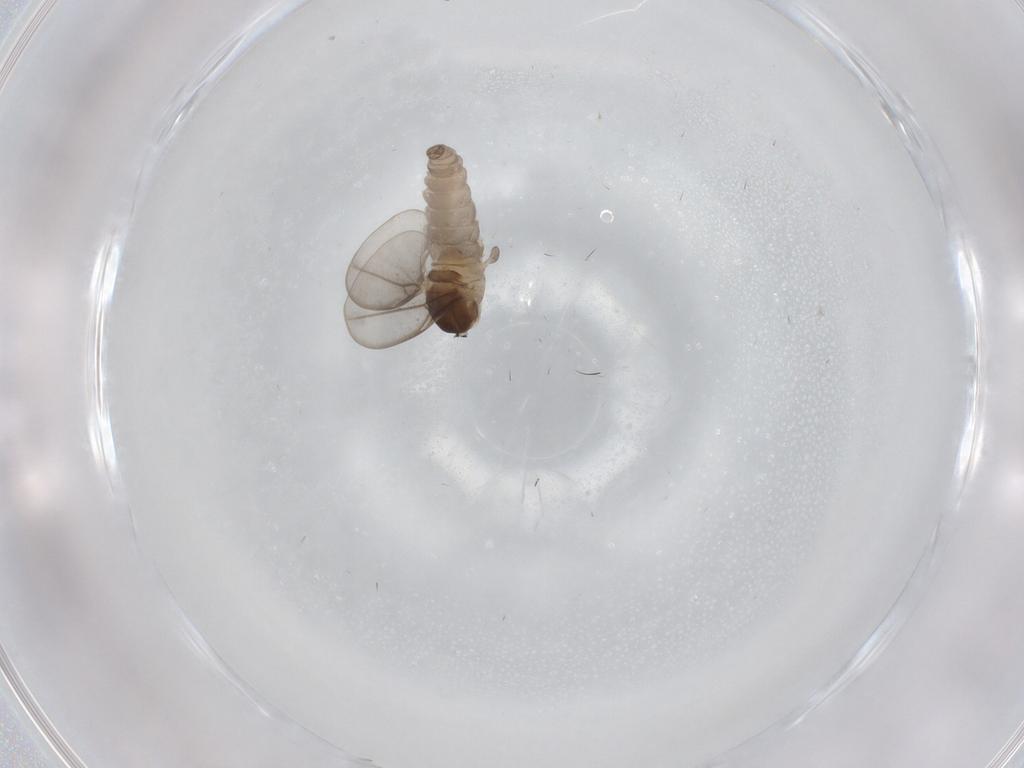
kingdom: Animalia
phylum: Arthropoda
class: Insecta
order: Diptera
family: Cecidomyiidae
